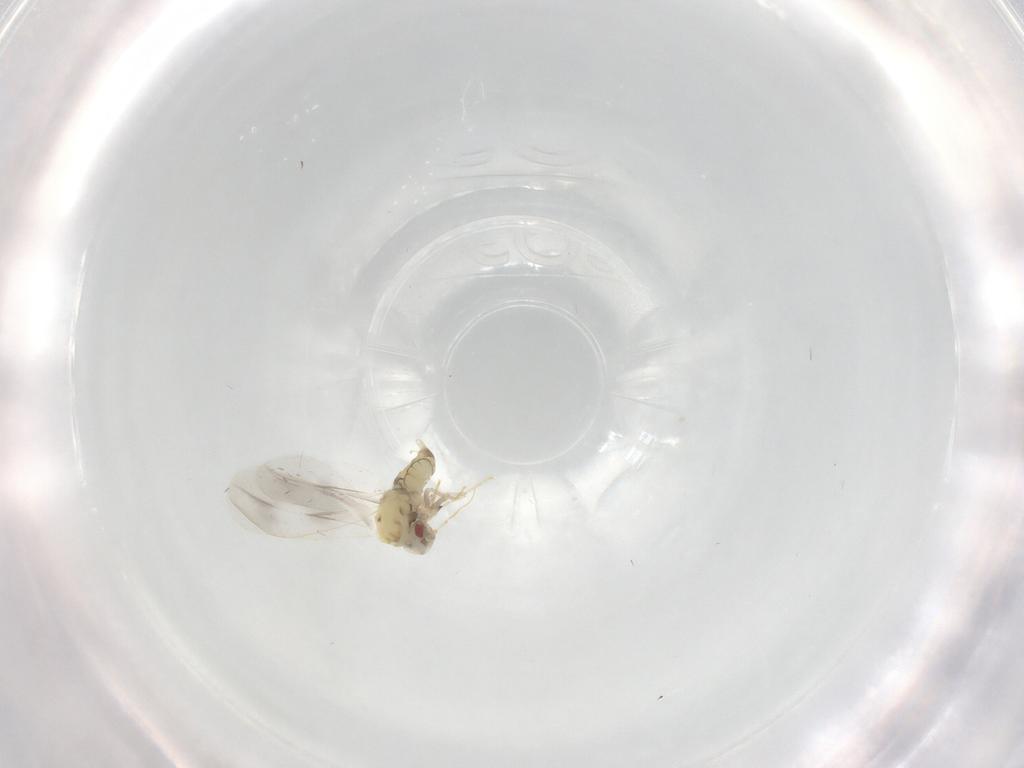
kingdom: Animalia
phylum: Arthropoda
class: Insecta
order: Hemiptera
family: Aleyrodidae
